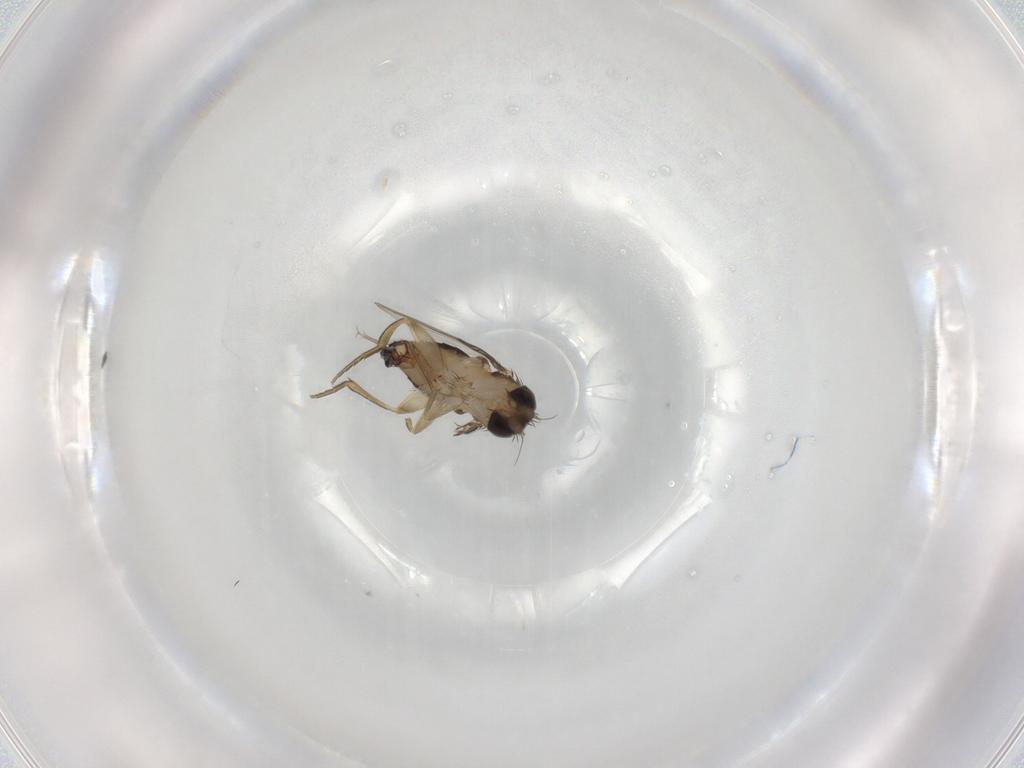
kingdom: Animalia
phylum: Arthropoda
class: Insecta
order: Diptera
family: Phoridae
